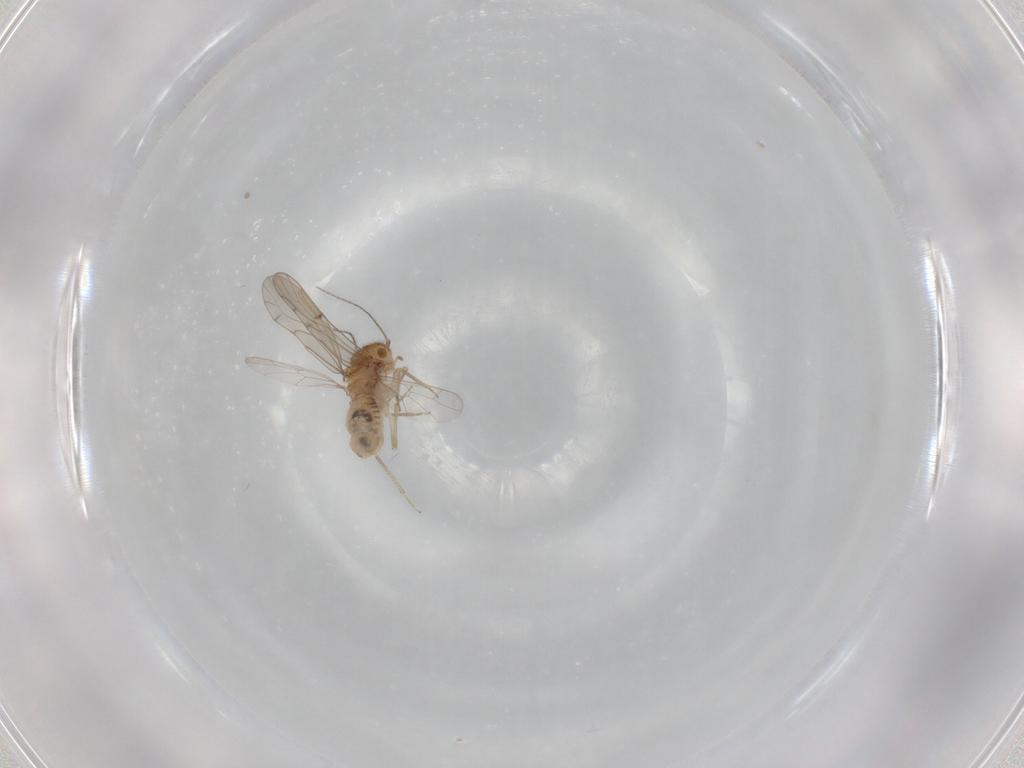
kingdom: Animalia
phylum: Arthropoda
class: Insecta
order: Psocodea
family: Ectopsocidae
